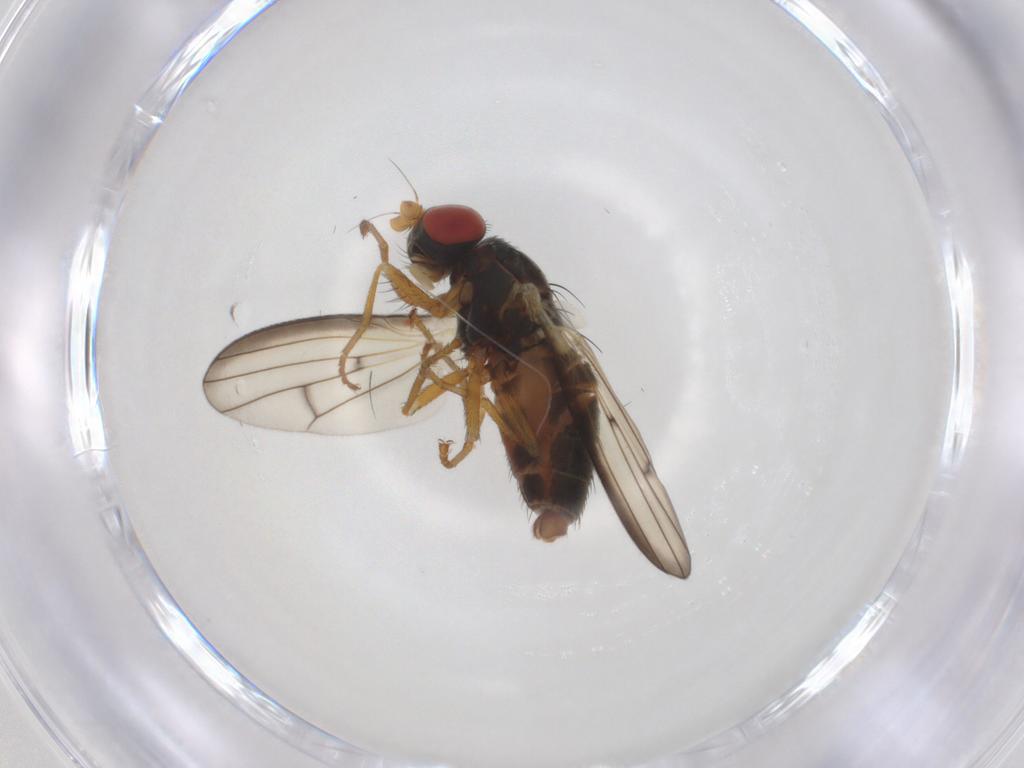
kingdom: Animalia
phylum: Arthropoda
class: Insecta
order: Diptera
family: Chamaemyiidae
